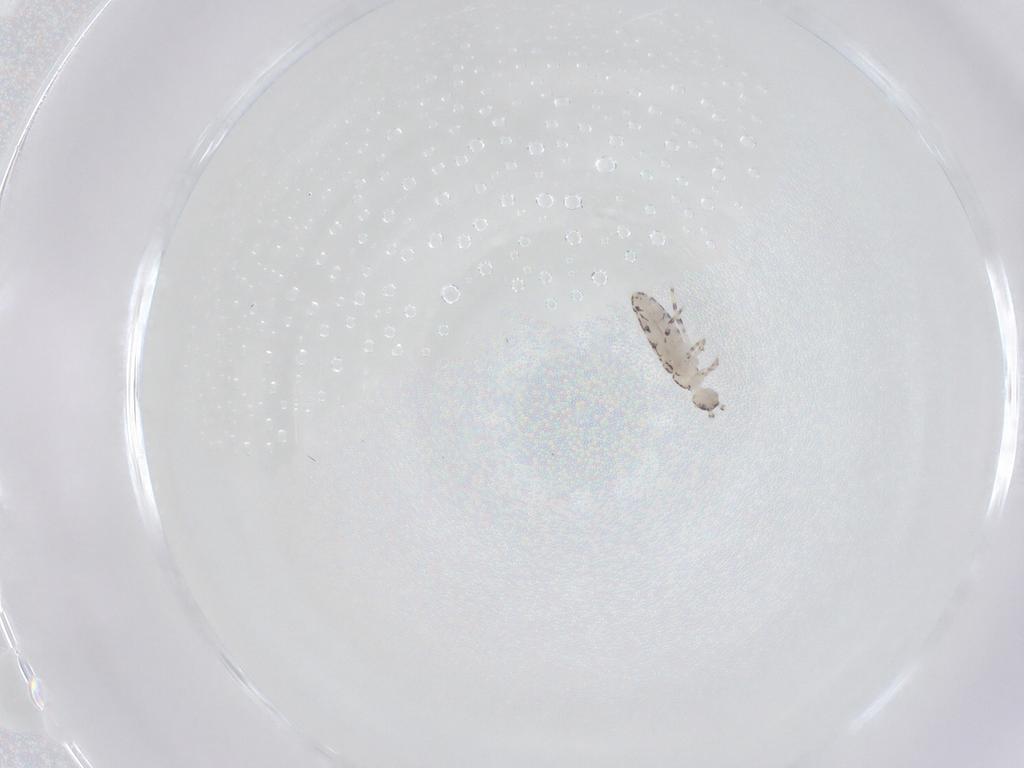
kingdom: Animalia
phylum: Arthropoda
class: Collembola
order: Entomobryomorpha
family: Entomobryidae
